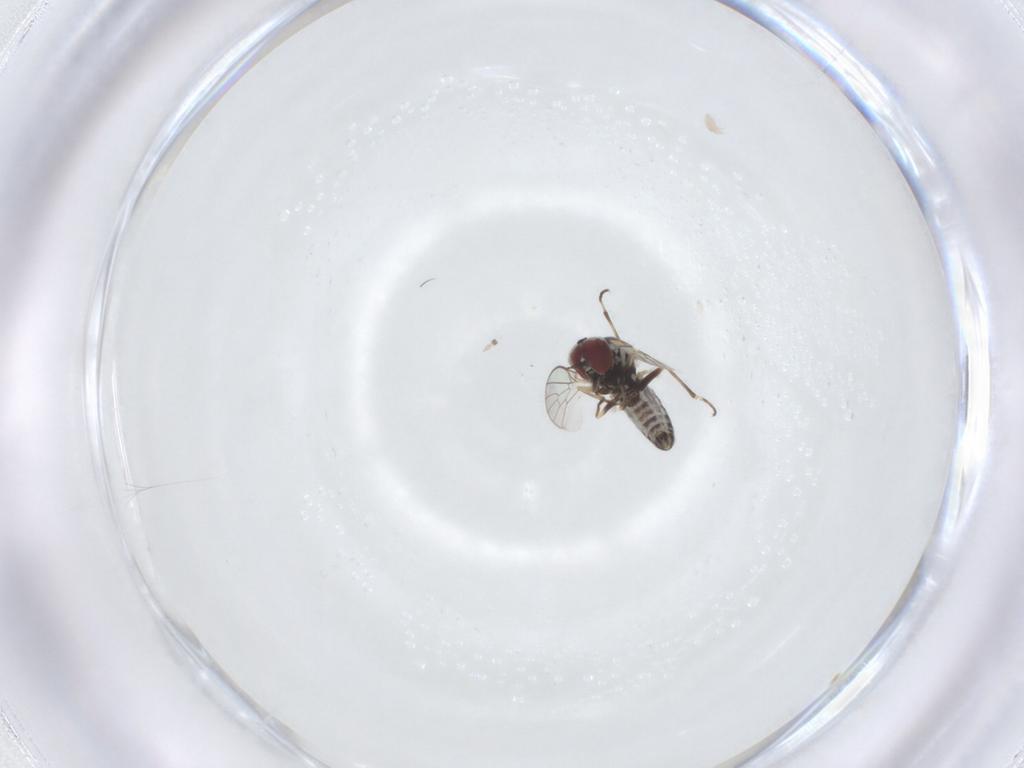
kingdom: Animalia
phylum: Arthropoda
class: Insecta
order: Diptera
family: Mythicomyiidae
